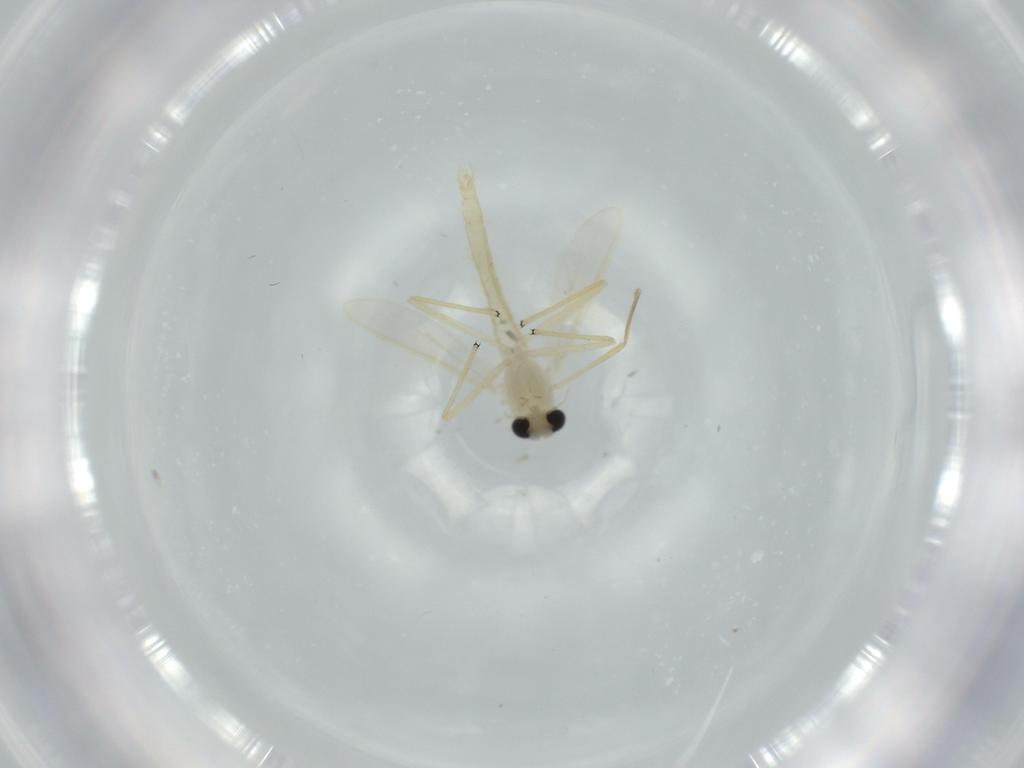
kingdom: Animalia
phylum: Arthropoda
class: Insecta
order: Diptera
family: Chironomidae
